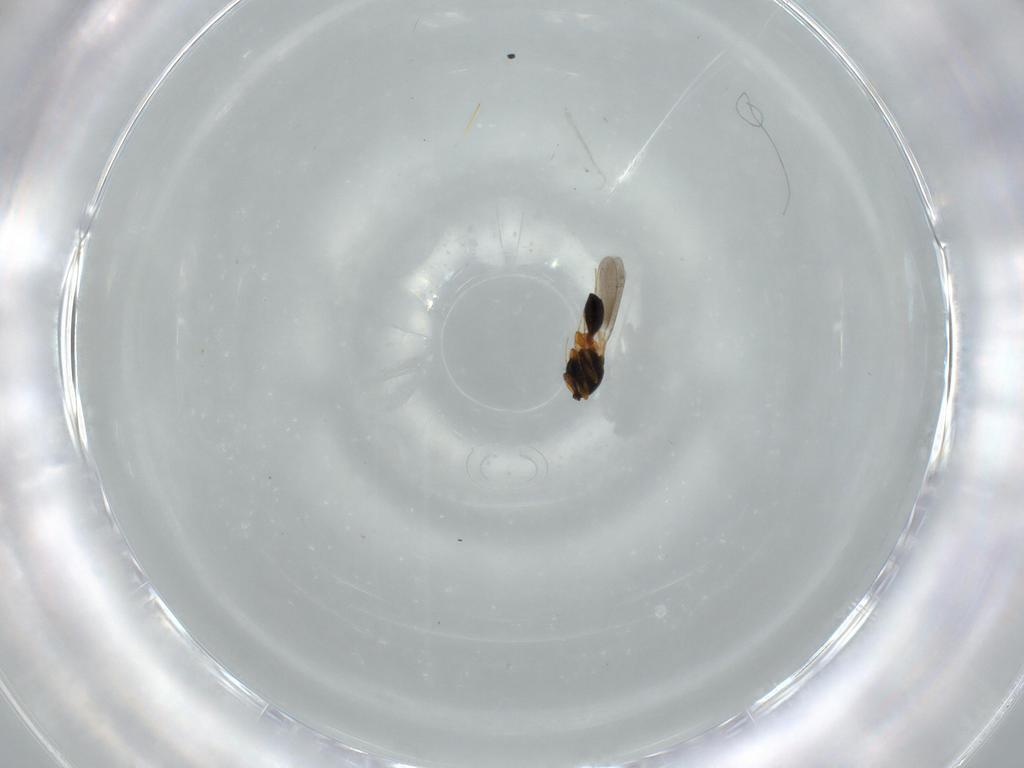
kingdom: Animalia
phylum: Arthropoda
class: Insecta
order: Hymenoptera
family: Platygastridae
